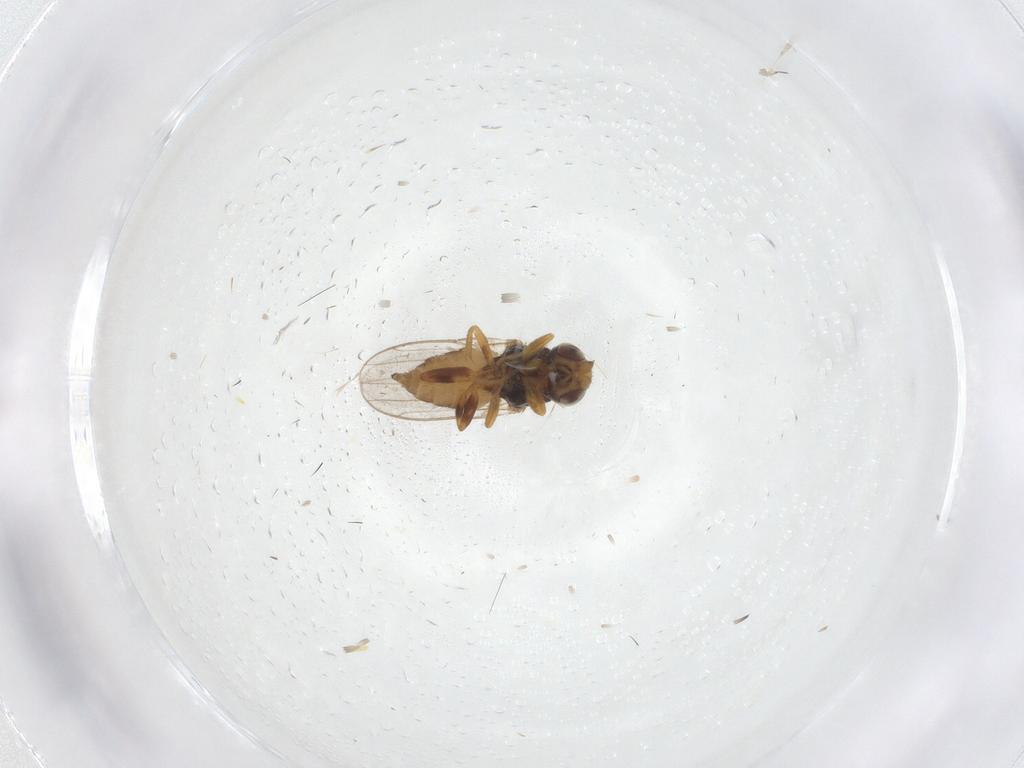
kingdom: Animalia
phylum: Arthropoda
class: Insecta
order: Diptera
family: Chloropidae
